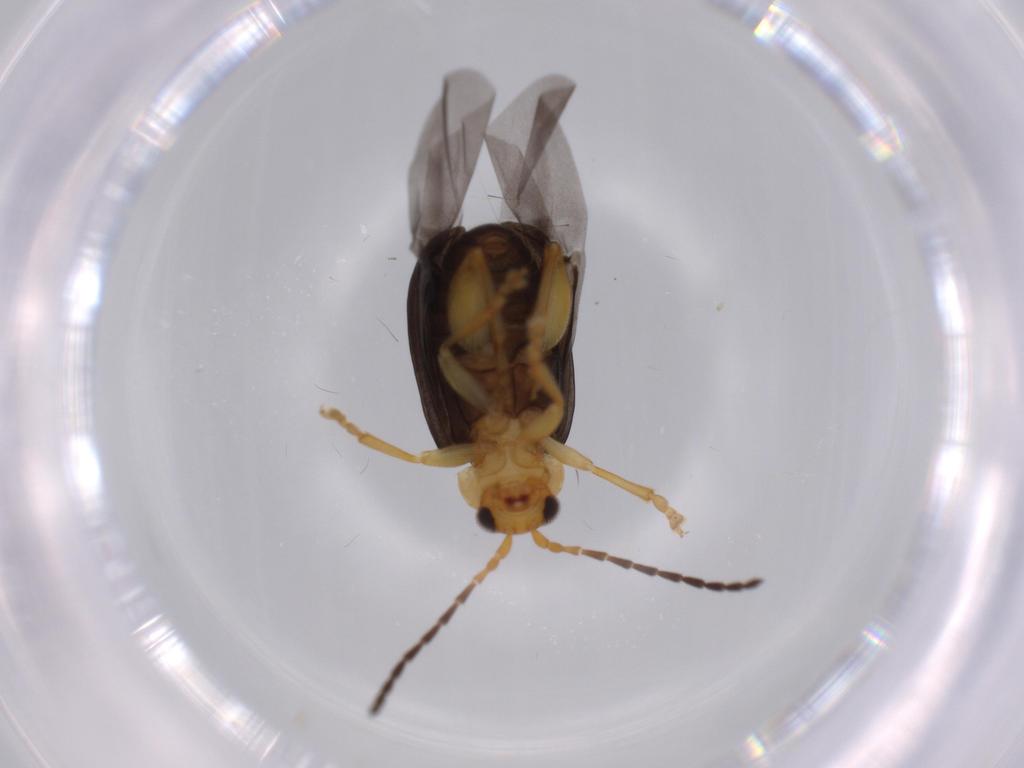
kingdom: Animalia
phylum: Arthropoda
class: Insecta
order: Coleoptera
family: Chrysomelidae
